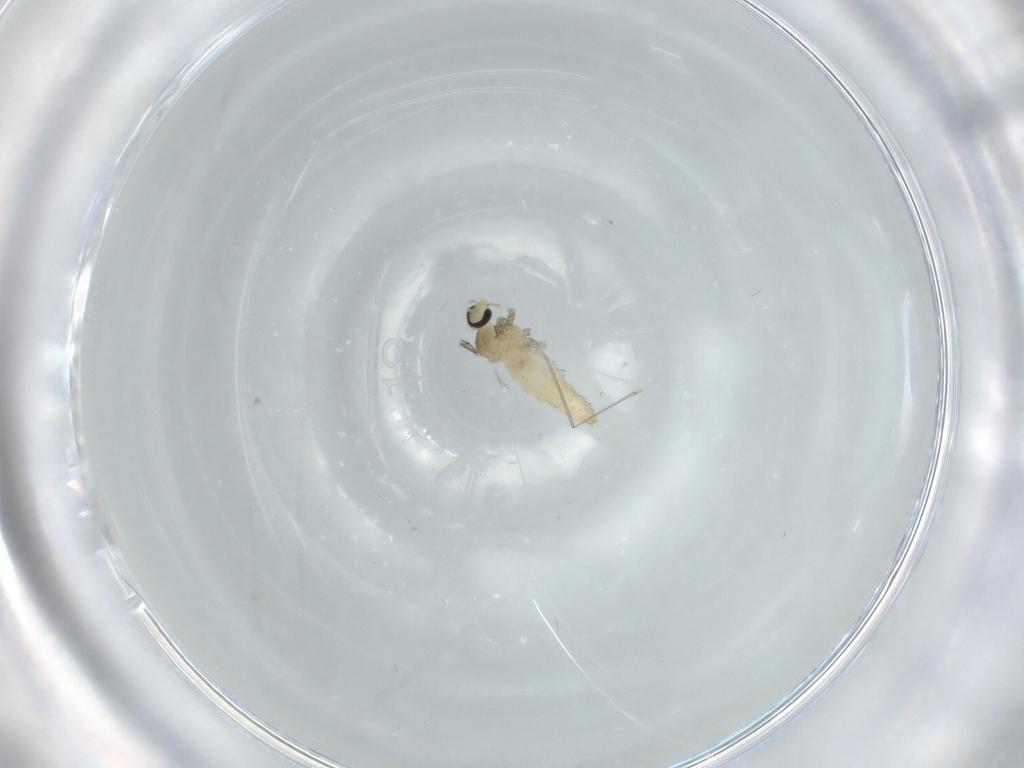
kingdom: Animalia
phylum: Arthropoda
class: Insecta
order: Diptera
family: Cecidomyiidae
